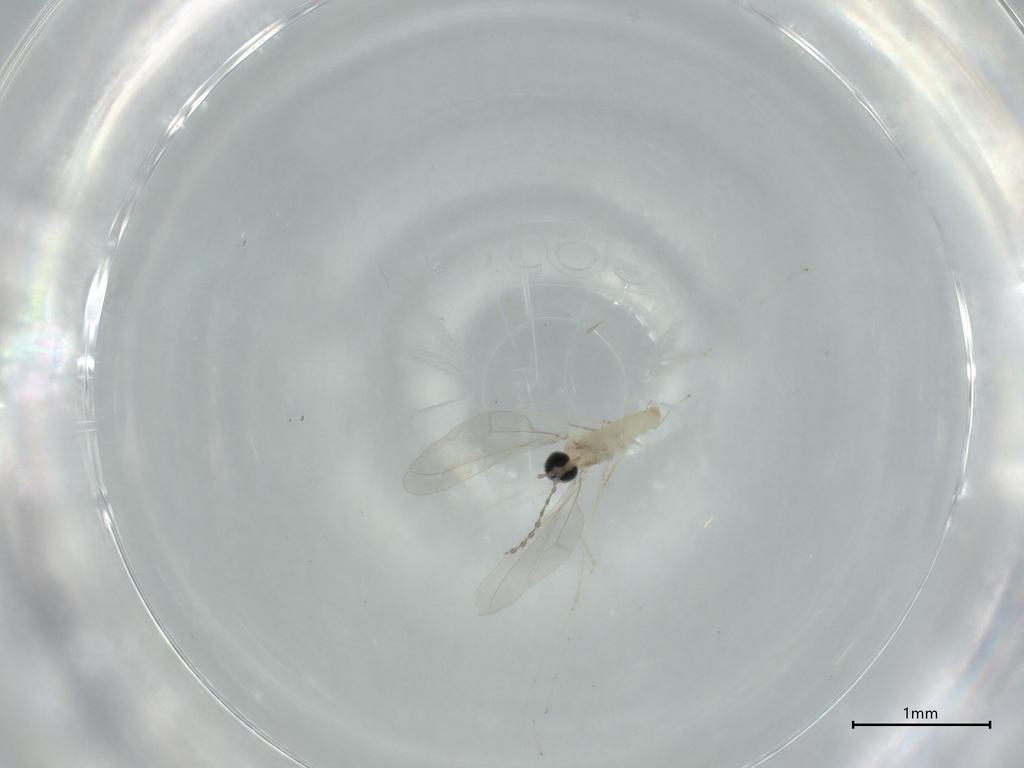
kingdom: Animalia
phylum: Arthropoda
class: Insecta
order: Diptera
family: Cecidomyiidae
